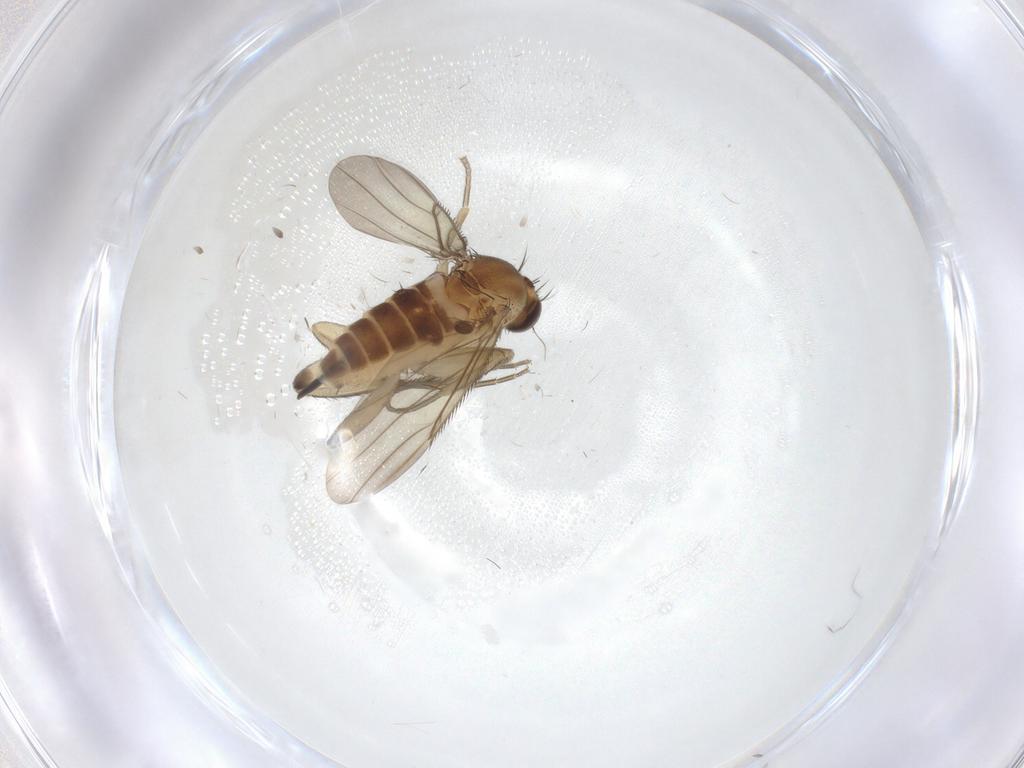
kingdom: Animalia
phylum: Arthropoda
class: Insecta
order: Diptera
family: Phoridae
